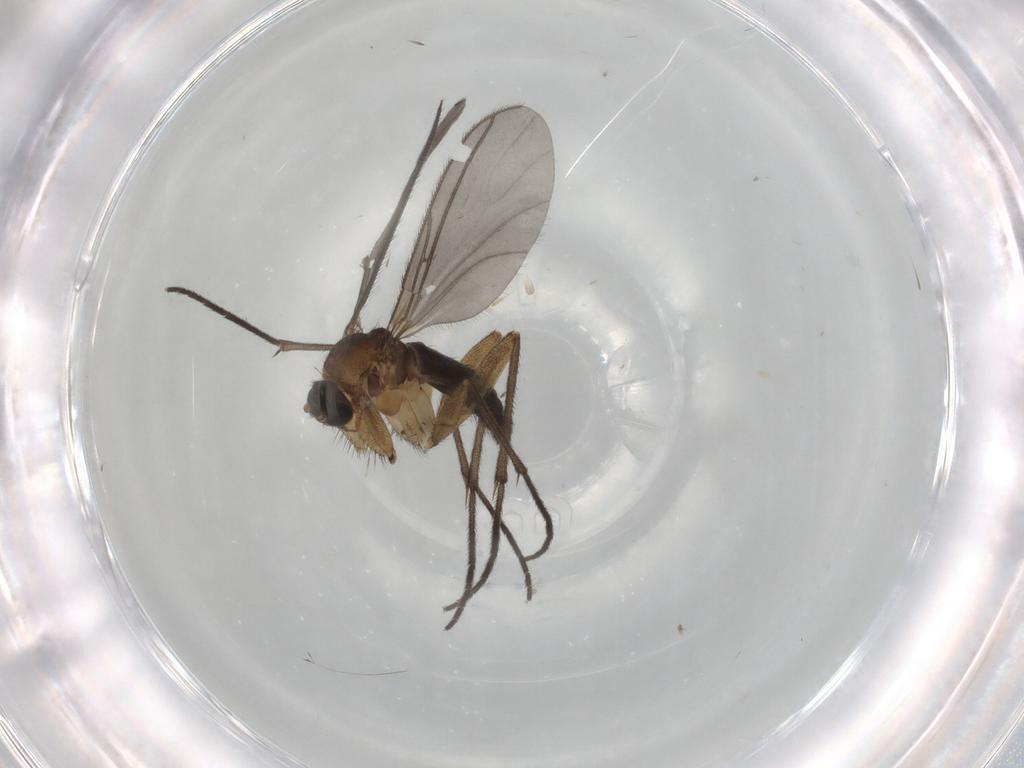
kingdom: Animalia
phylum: Arthropoda
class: Insecta
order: Diptera
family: Sciaridae
